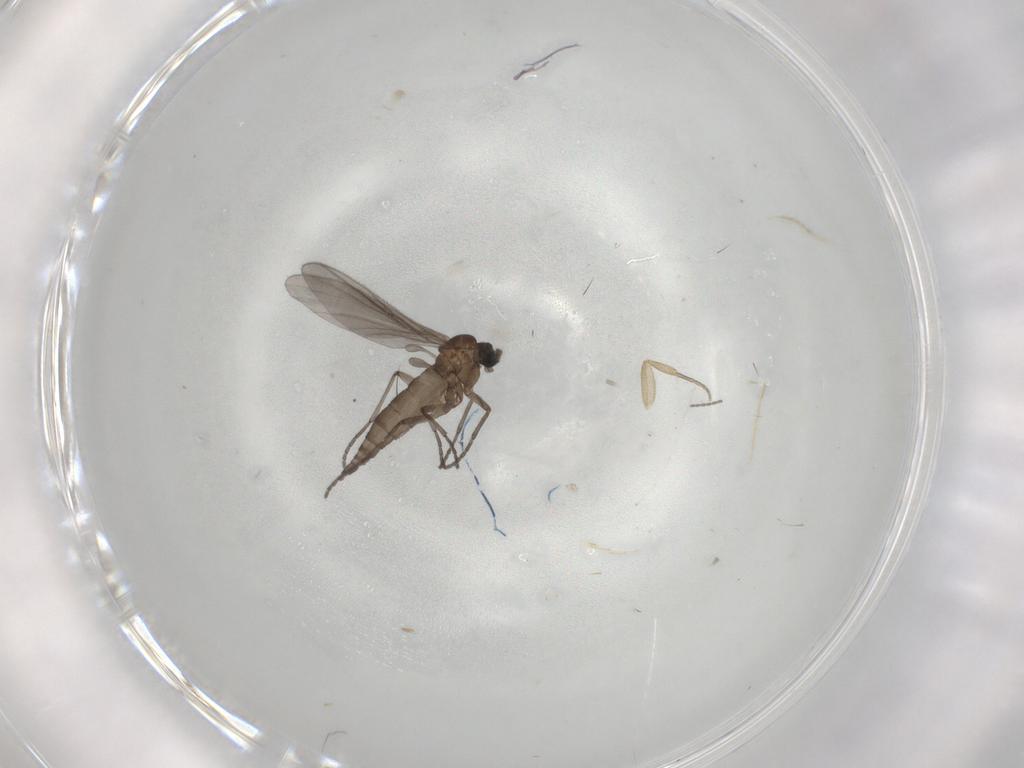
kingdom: Animalia
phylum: Arthropoda
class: Insecta
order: Diptera
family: Sciaridae
